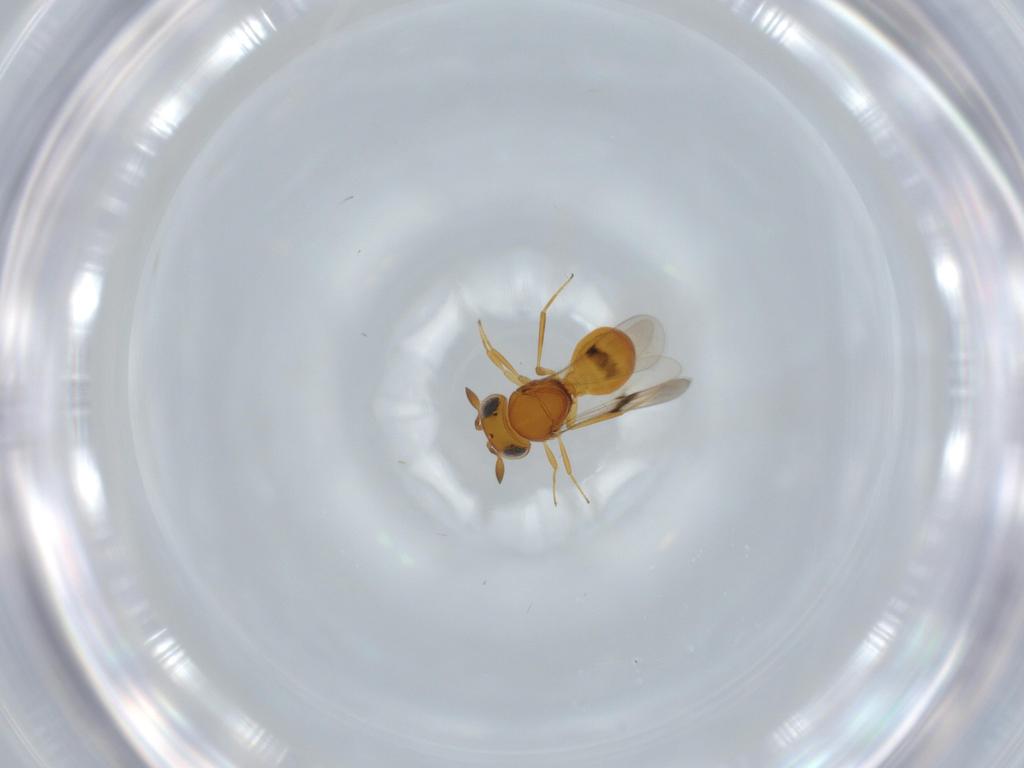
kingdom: Animalia
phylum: Arthropoda
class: Insecta
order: Hymenoptera
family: Scelionidae
